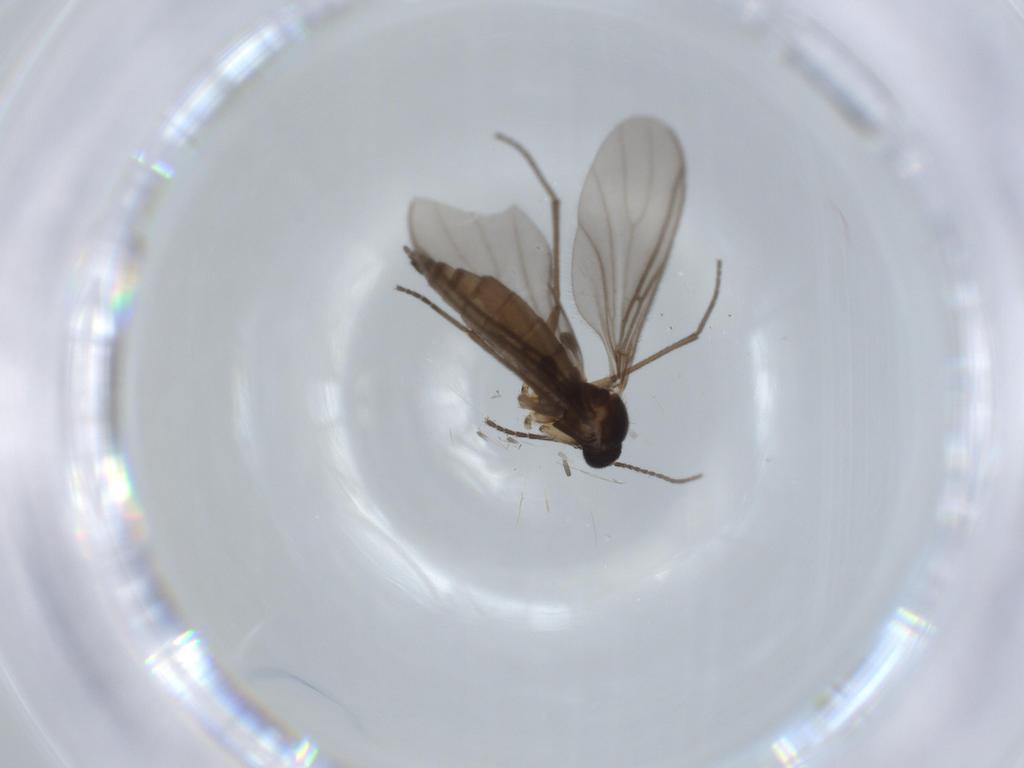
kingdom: Animalia
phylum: Arthropoda
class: Insecta
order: Diptera
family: Sciaridae
